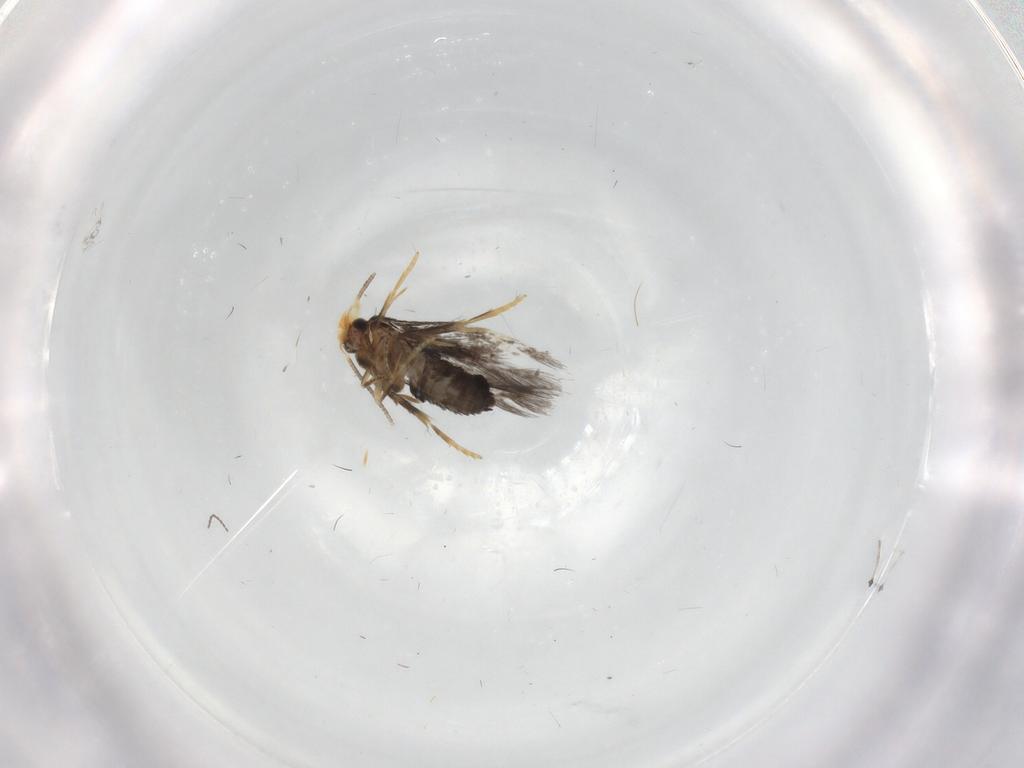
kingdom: Animalia
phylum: Arthropoda
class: Insecta
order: Lepidoptera
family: Nepticulidae
